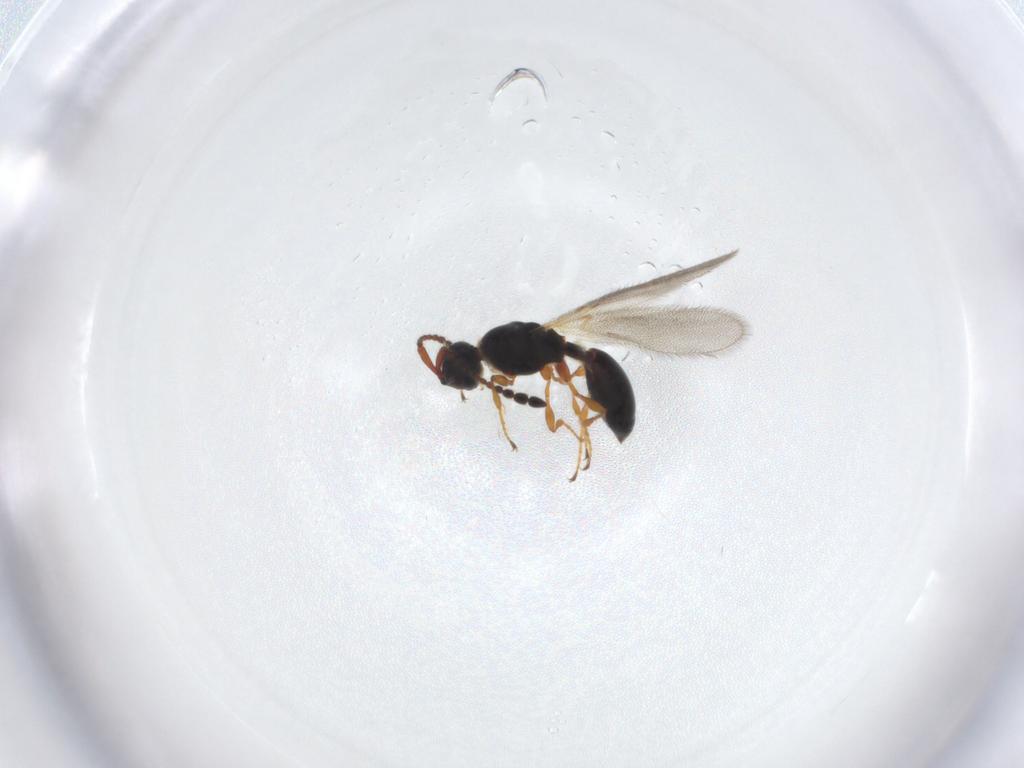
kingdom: Animalia
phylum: Arthropoda
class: Insecta
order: Hymenoptera
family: Diapriidae
